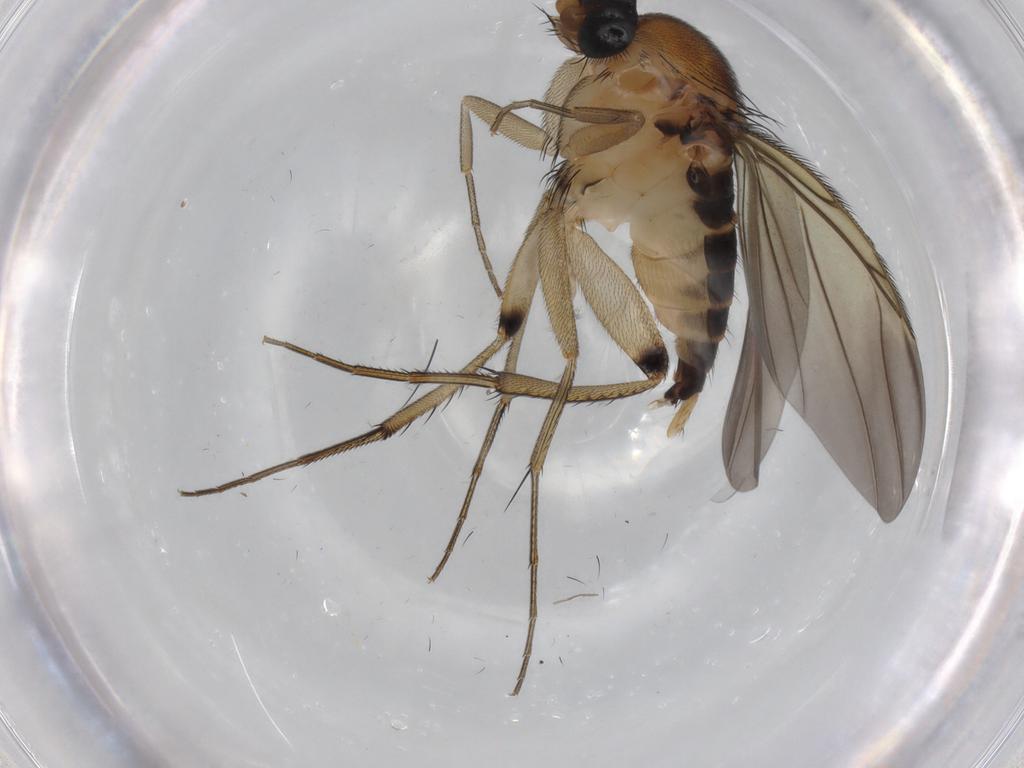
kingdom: Animalia
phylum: Arthropoda
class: Insecta
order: Diptera
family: Phoridae
